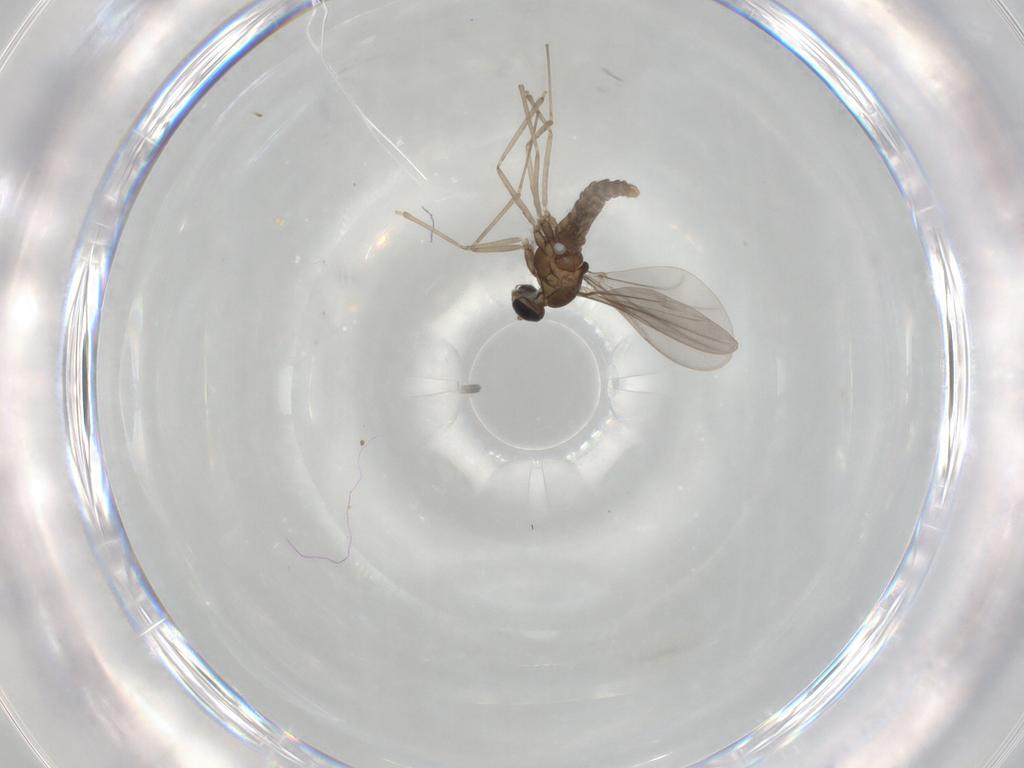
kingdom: Animalia
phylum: Arthropoda
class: Insecta
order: Diptera
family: Cecidomyiidae
